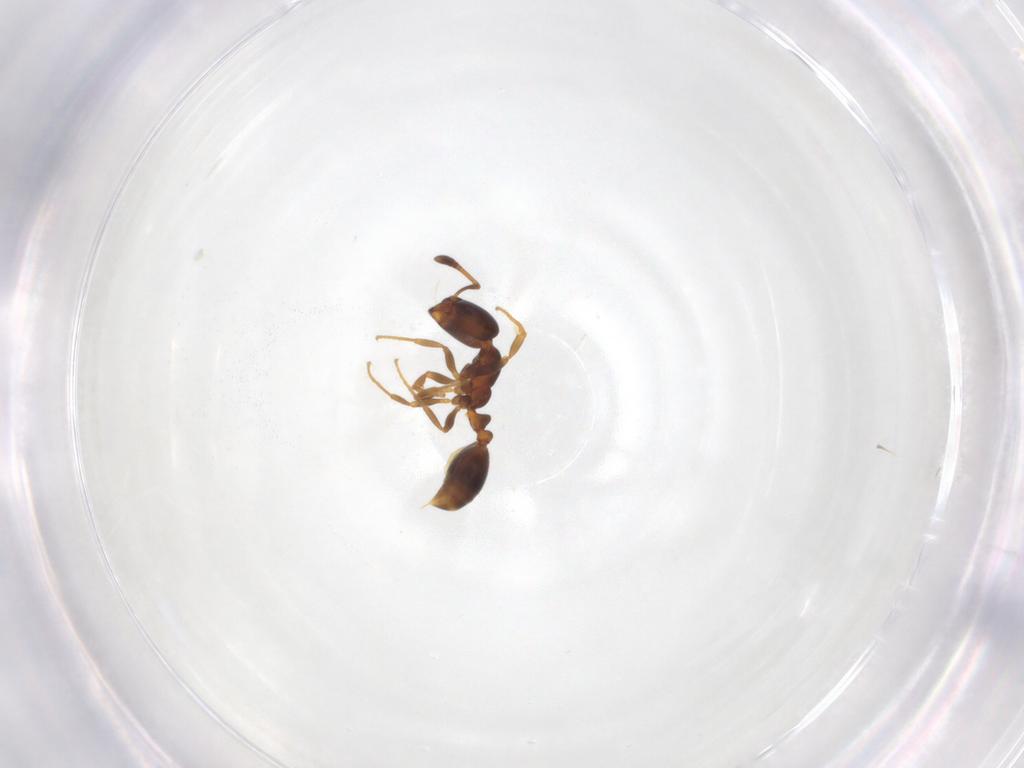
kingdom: Animalia
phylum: Arthropoda
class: Insecta
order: Hymenoptera
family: Formicidae
